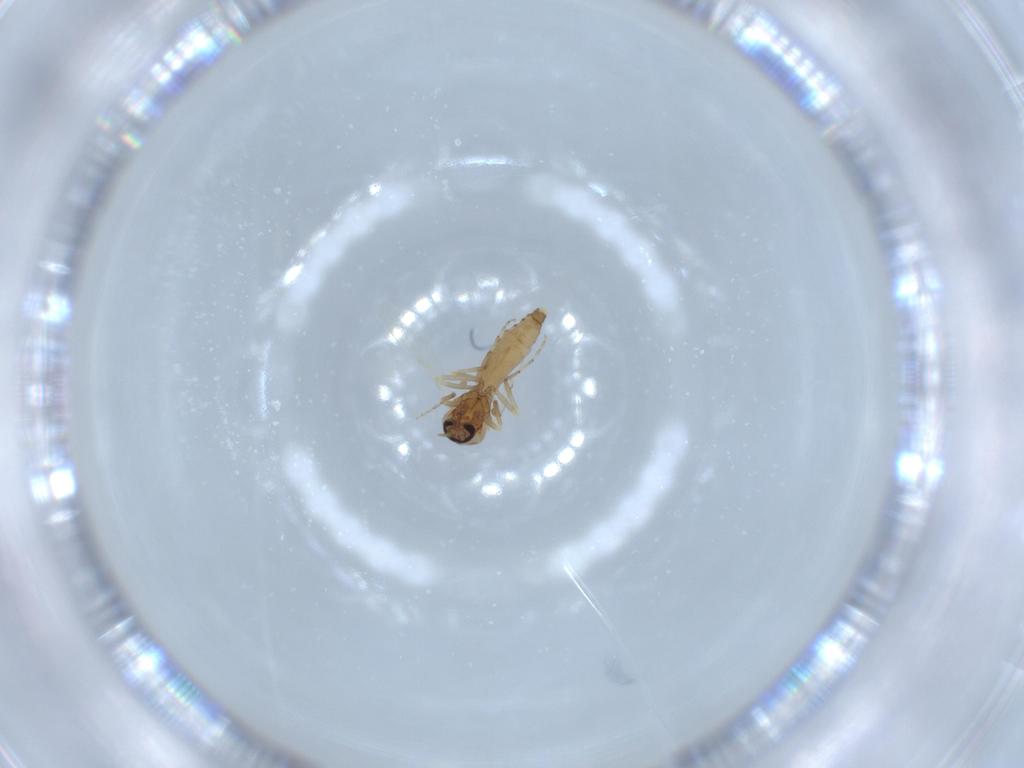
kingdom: Animalia
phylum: Arthropoda
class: Insecta
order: Diptera
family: Ceratopogonidae
